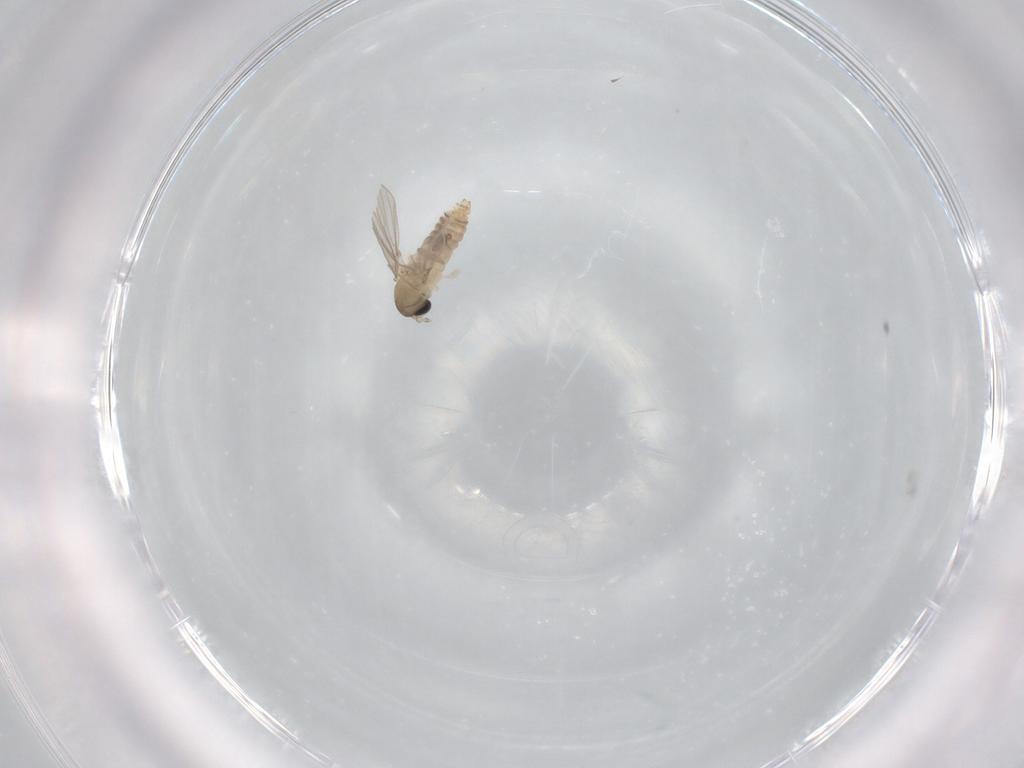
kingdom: Animalia
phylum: Arthropoda
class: Insecta
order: Diptera
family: Psychodidae
